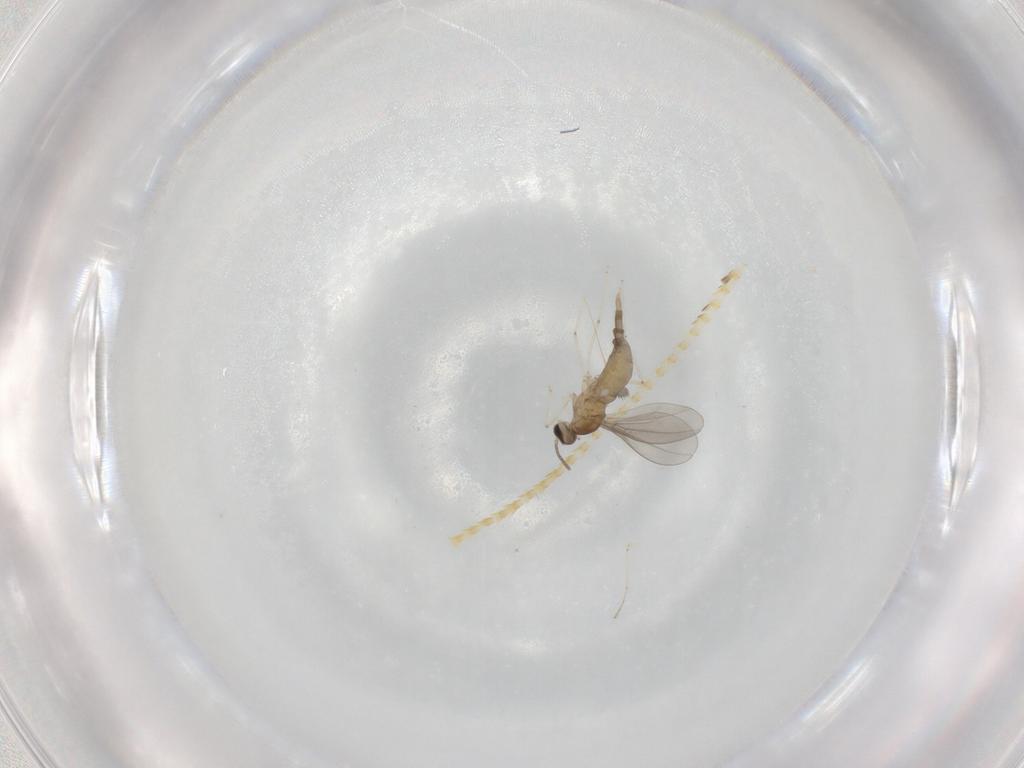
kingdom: Animalia
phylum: Arthropoda
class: Insecta
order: Diptera
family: Cecidomyiidae
